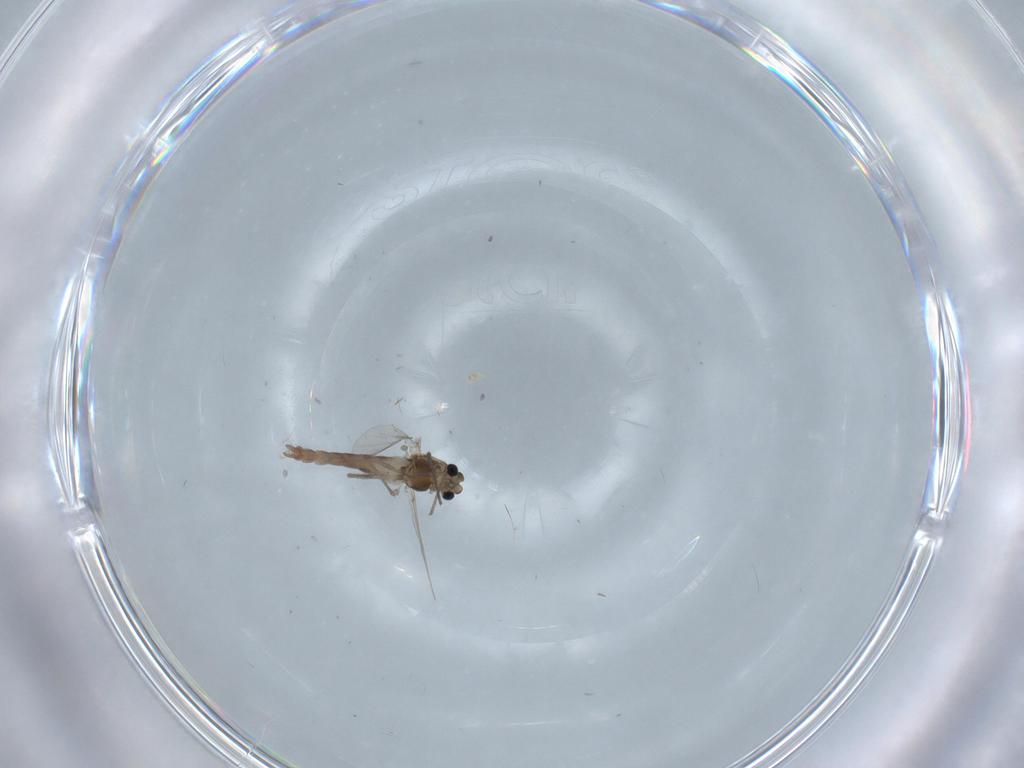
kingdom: Animalia
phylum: Arthropoda
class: Insecta
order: Diptera
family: Chironomidae
